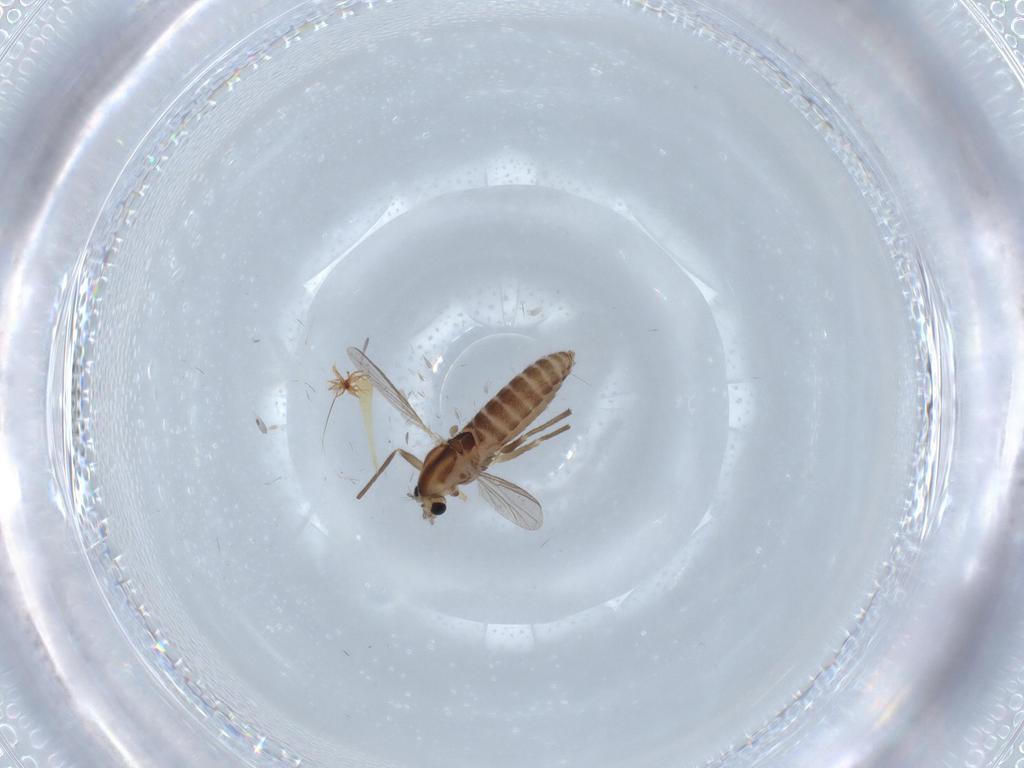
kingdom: Animalia
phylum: Arthropoda
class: Insecta
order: Diptera
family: Chironomidae
